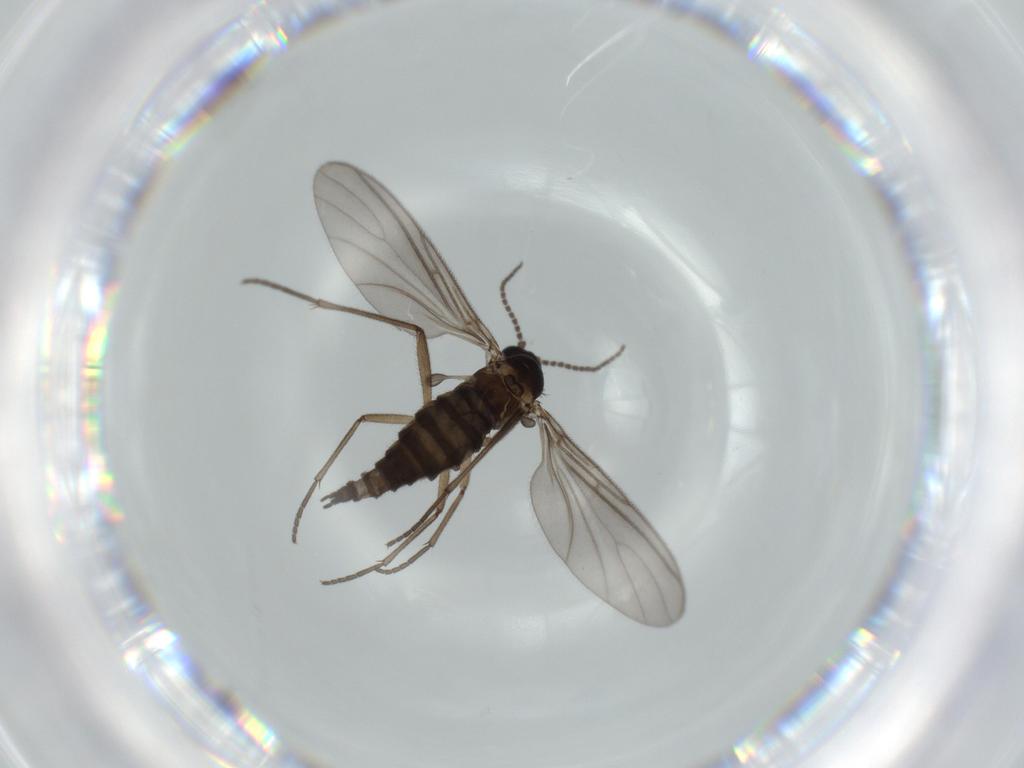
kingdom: Animalia
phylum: Arthropoda
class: Insecta
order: Diptera
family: Sciaridae
